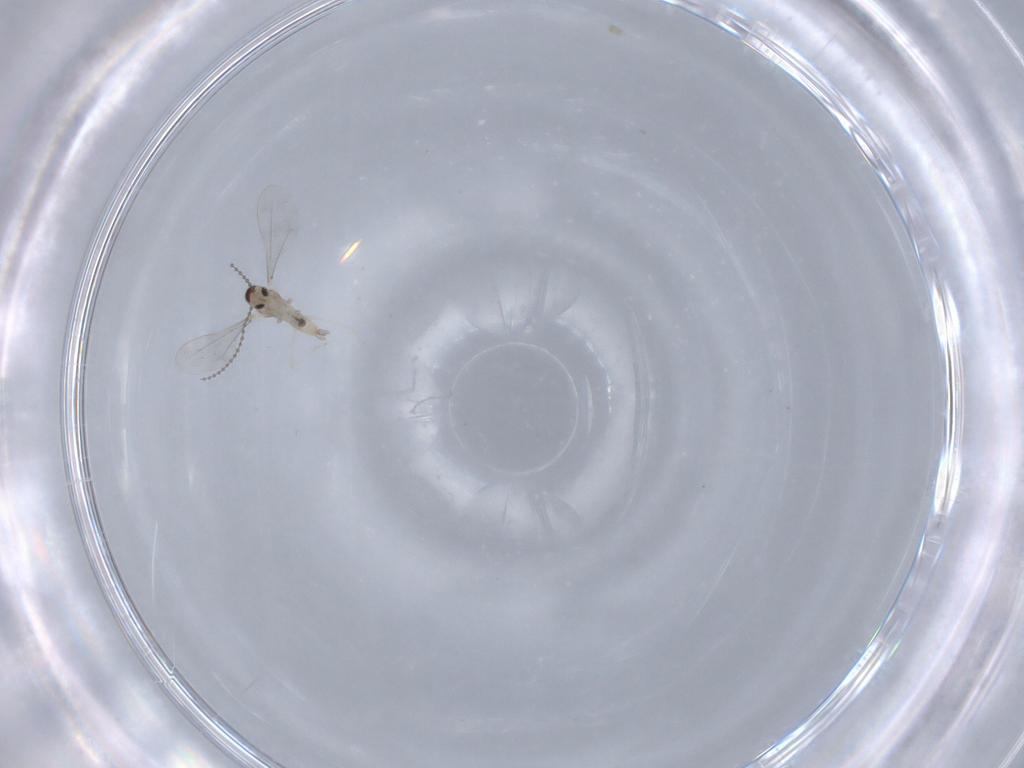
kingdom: Animalia
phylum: Arthropoda
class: Insecta
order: Diptera
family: Cecidomyiidae
